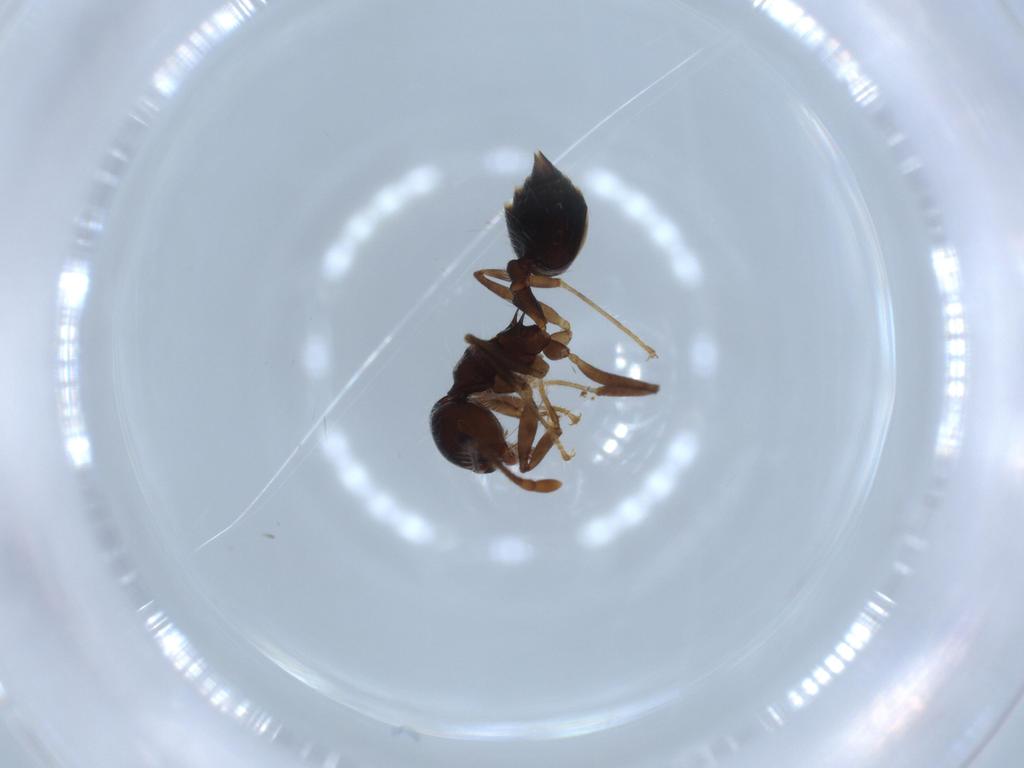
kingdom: Animalia
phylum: Arthropoda
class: Insecta
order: Hymenoptera
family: Formicidae
